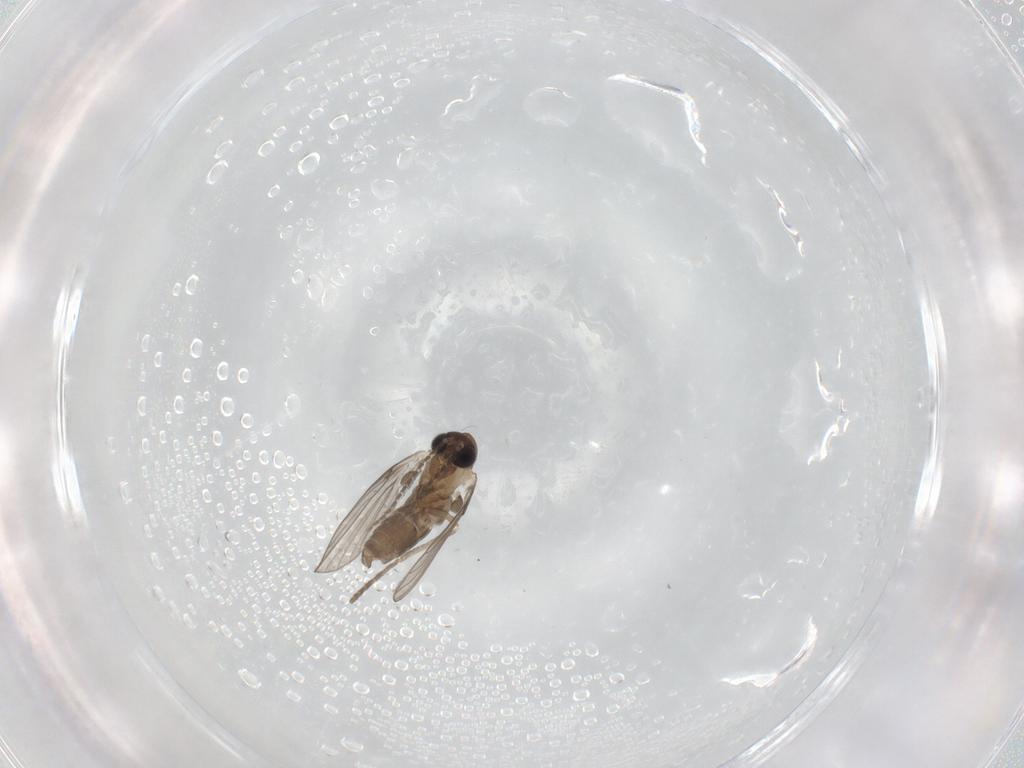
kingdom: Animalia
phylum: Arthropoda
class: Insecta
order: Diptera
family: Psychodidae
